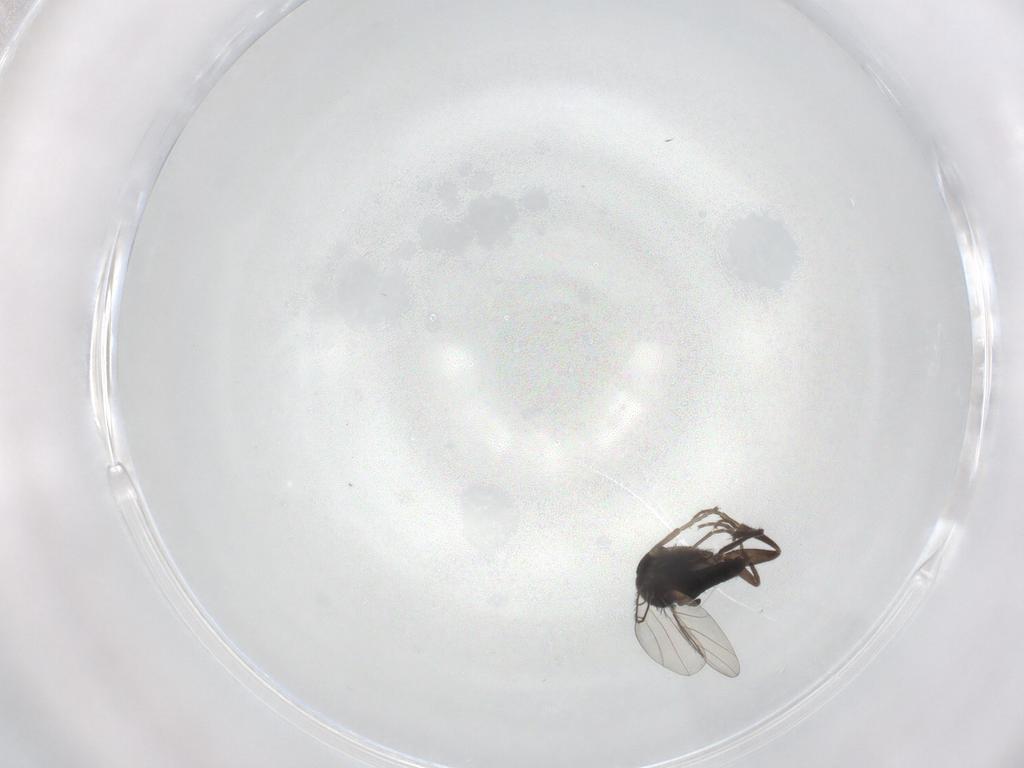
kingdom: Animalia
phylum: Arthropoda
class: Insecta
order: Diptera
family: Phoridae
